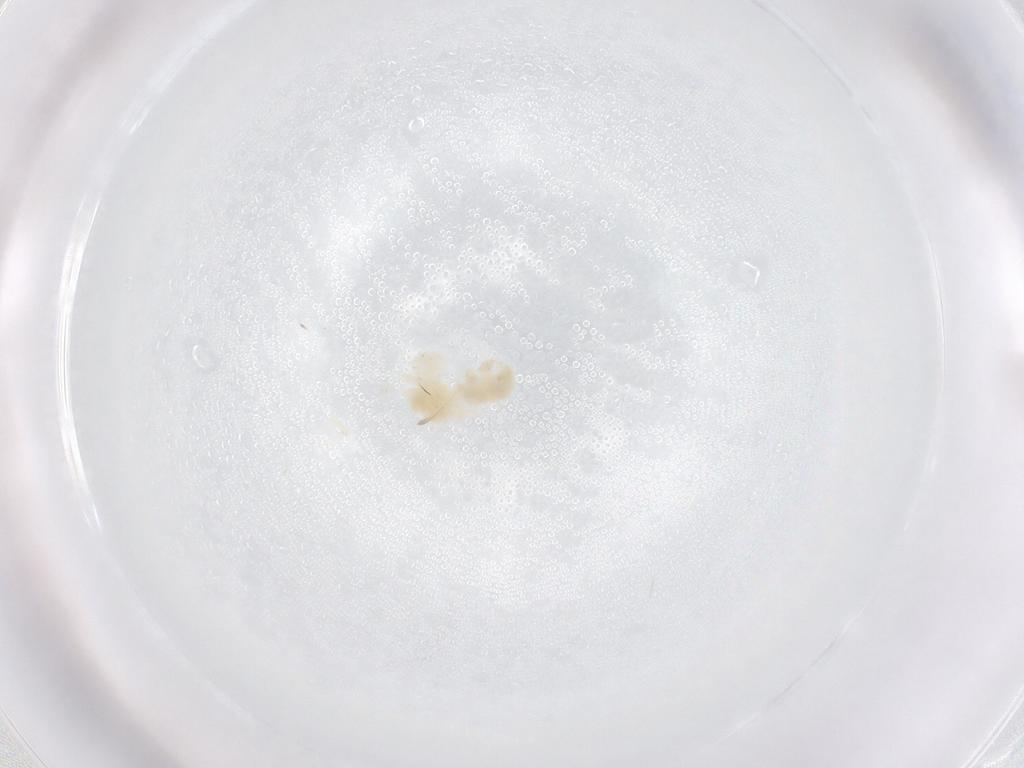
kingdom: Animalia
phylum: Arthropoda
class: Arachnida
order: Trombidiformes
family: Anystidae
